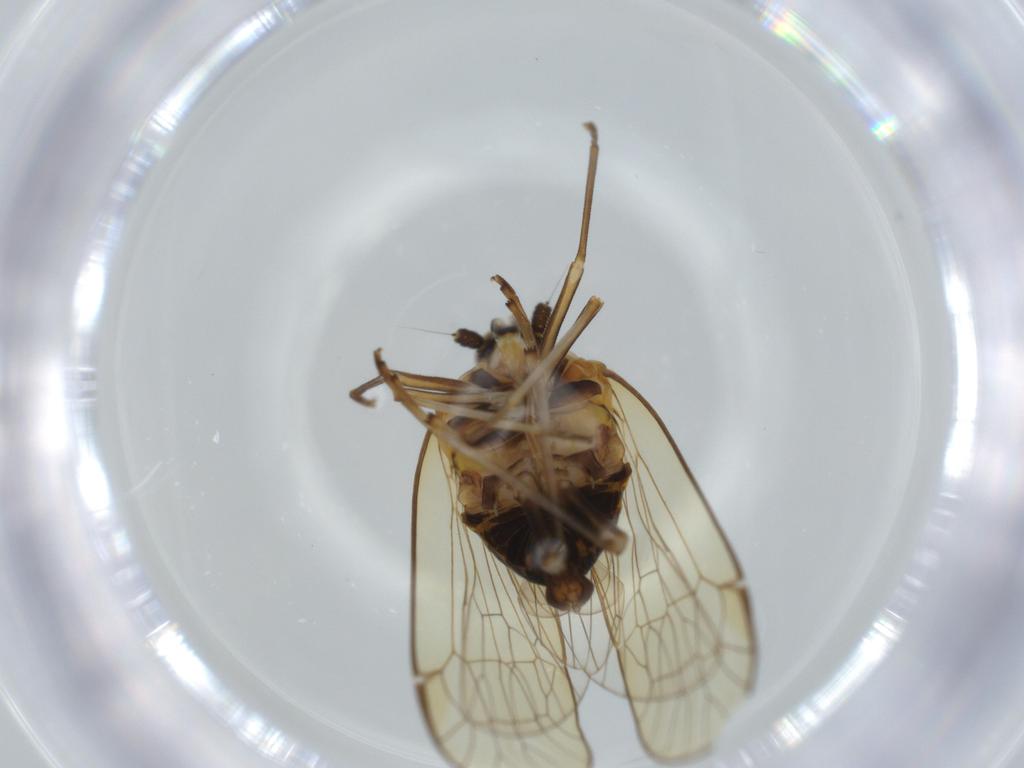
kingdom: Animalia
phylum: Arthropoda
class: Insecta
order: Hemiptera
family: Kinnaridae
